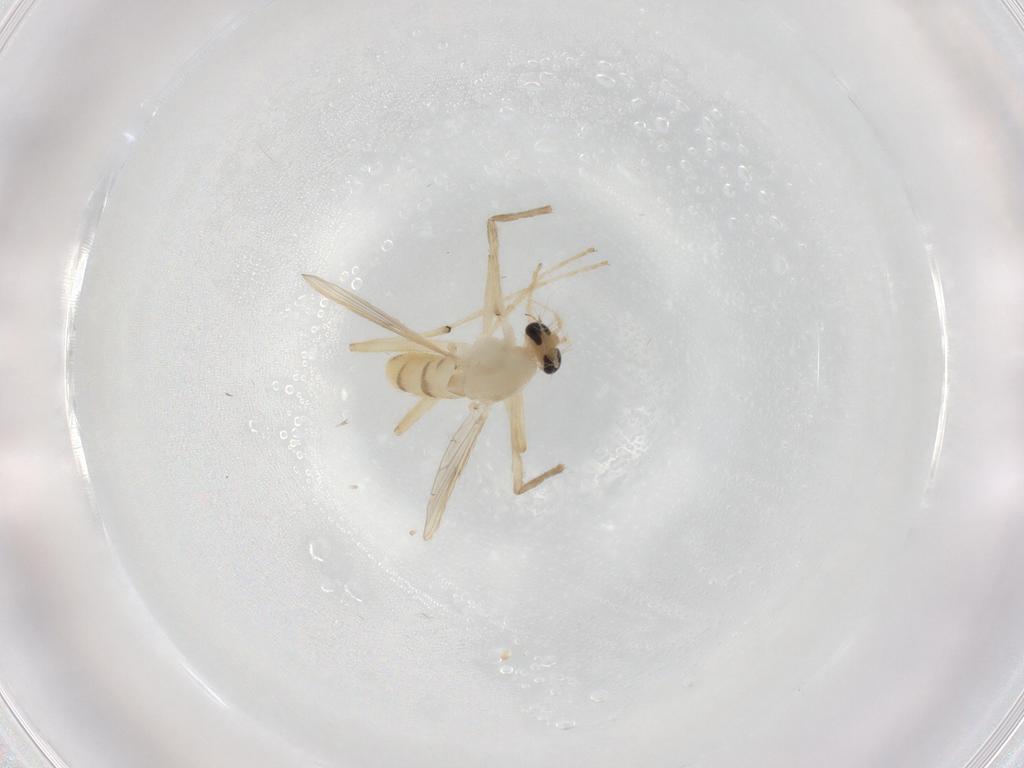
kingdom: Animalia
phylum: Arthropoda
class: Insecta
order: Diptera
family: Chironomidae
